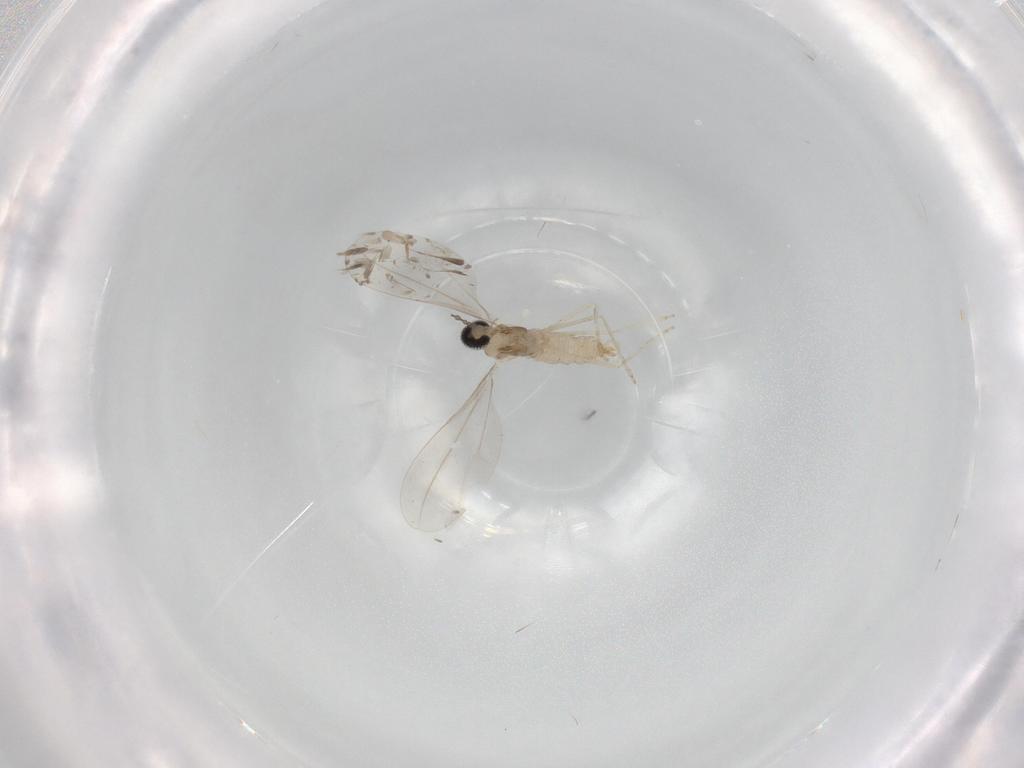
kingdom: Animalia
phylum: Arthropoda
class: Insecta
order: Diptera
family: Cecidomyiidae
